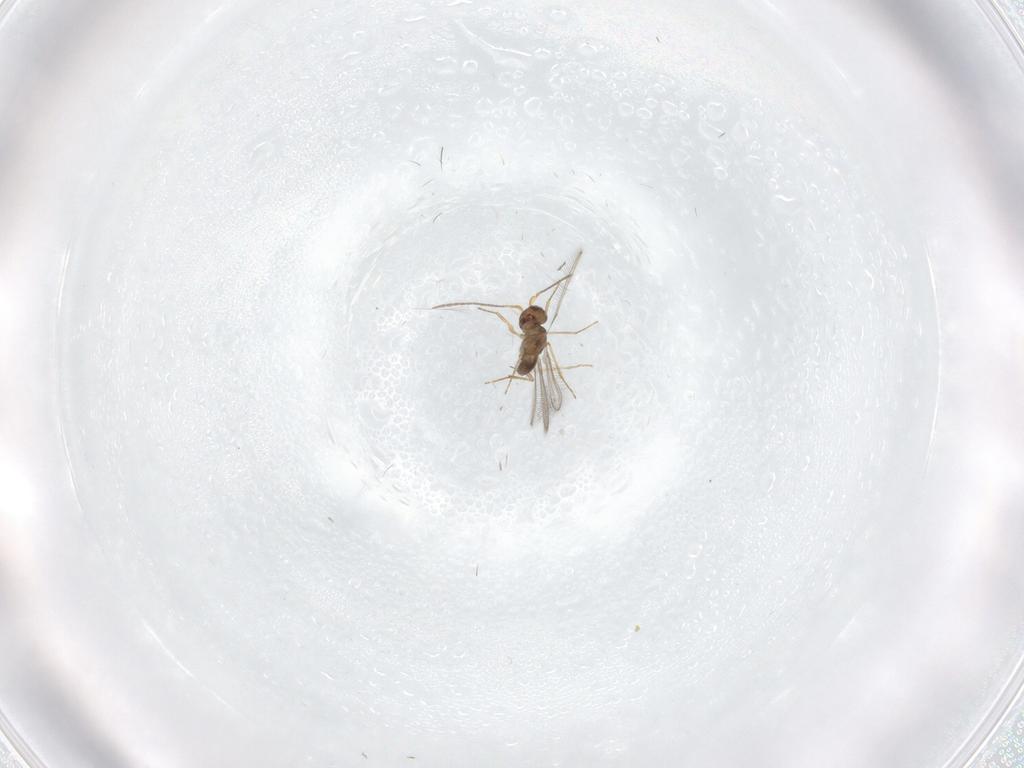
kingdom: Animalia
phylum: Arthropoda
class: Insecta
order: Hymenoptera
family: Mymaridae
